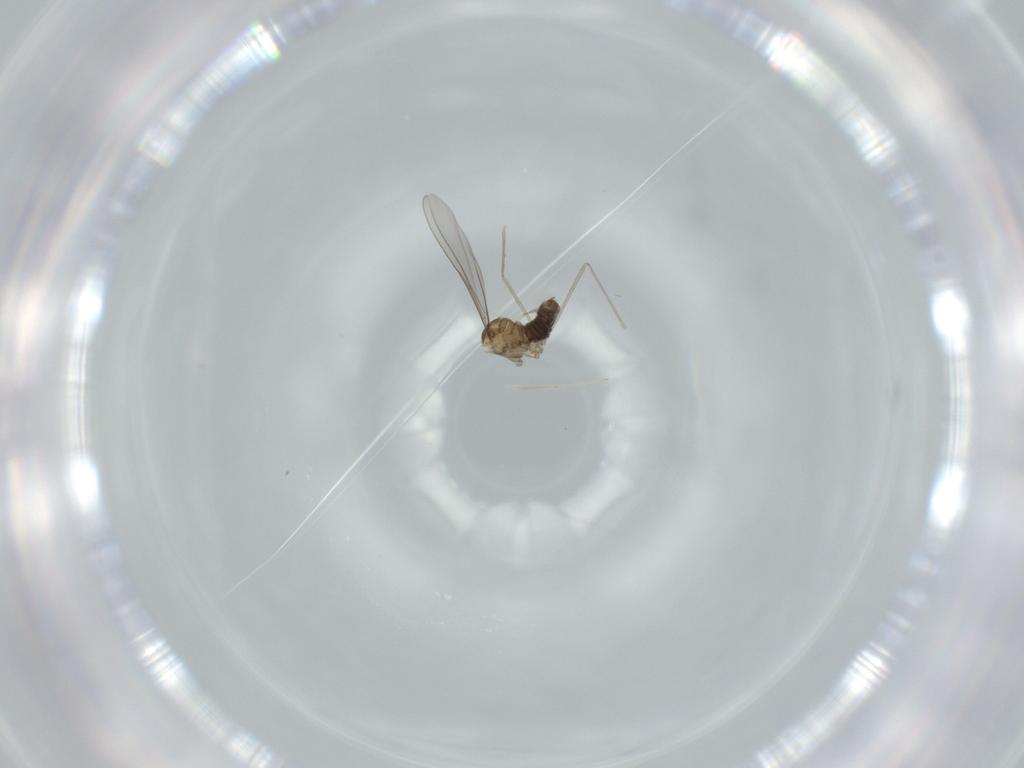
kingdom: Animalia
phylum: Arthropoda
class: Insecta
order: Diptera
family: Cecidomyiidae
